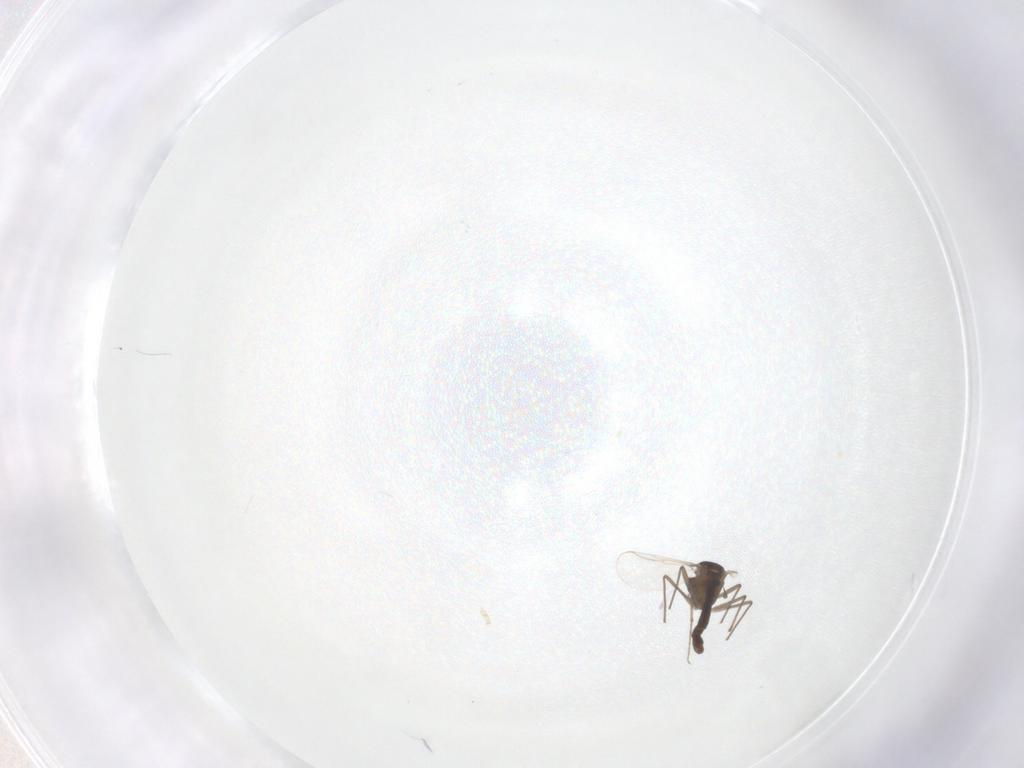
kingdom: Animalia
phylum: Arthropoda
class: Insecta
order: Diptera
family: Chironomidae
